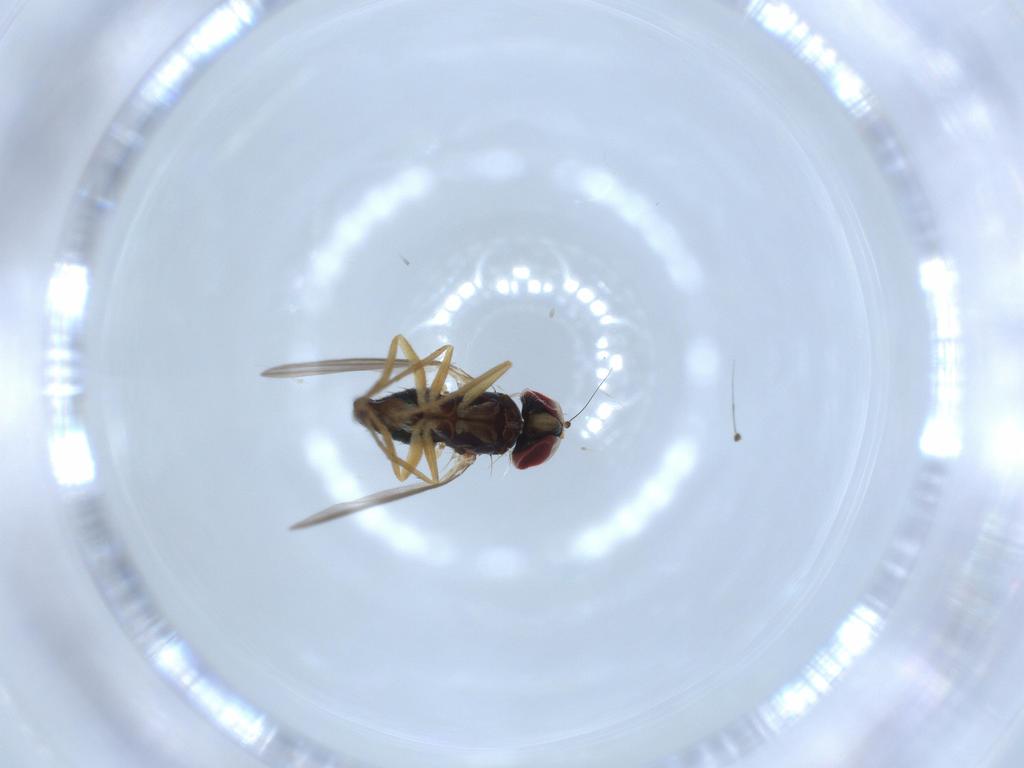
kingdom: Animalia
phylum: Arthropoda
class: Insecta
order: Diptera
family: Dolichopodidae
